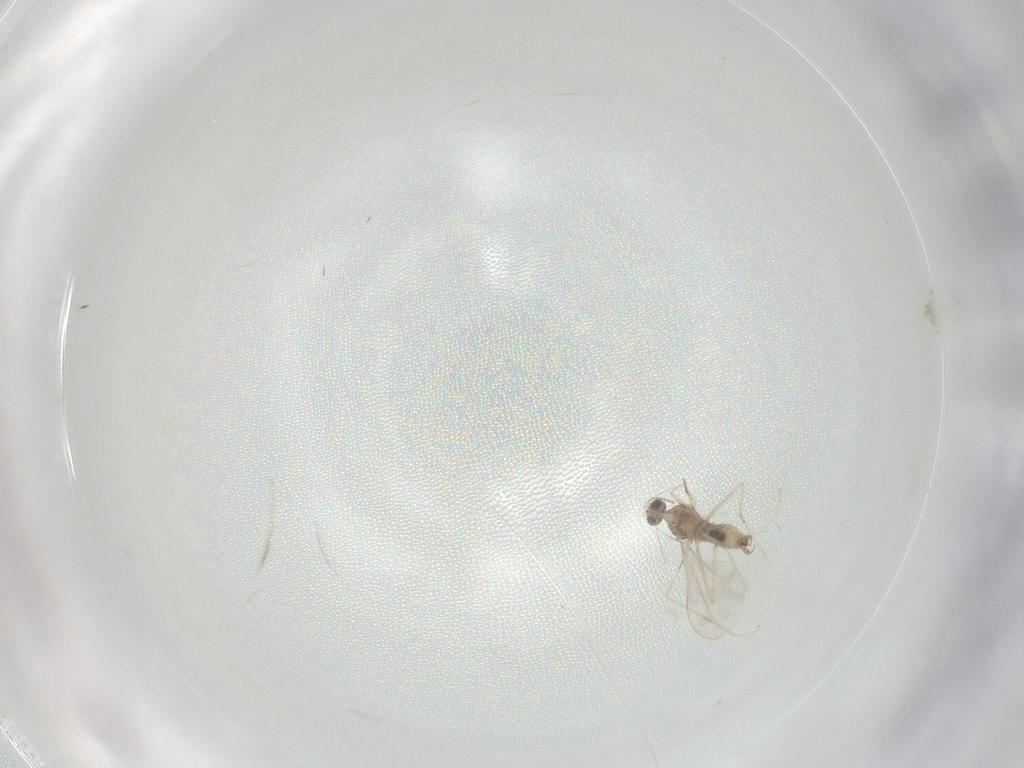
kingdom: Animalia
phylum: Arthropoda
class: Insecta
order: Diptera
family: Cecidomyiidae
